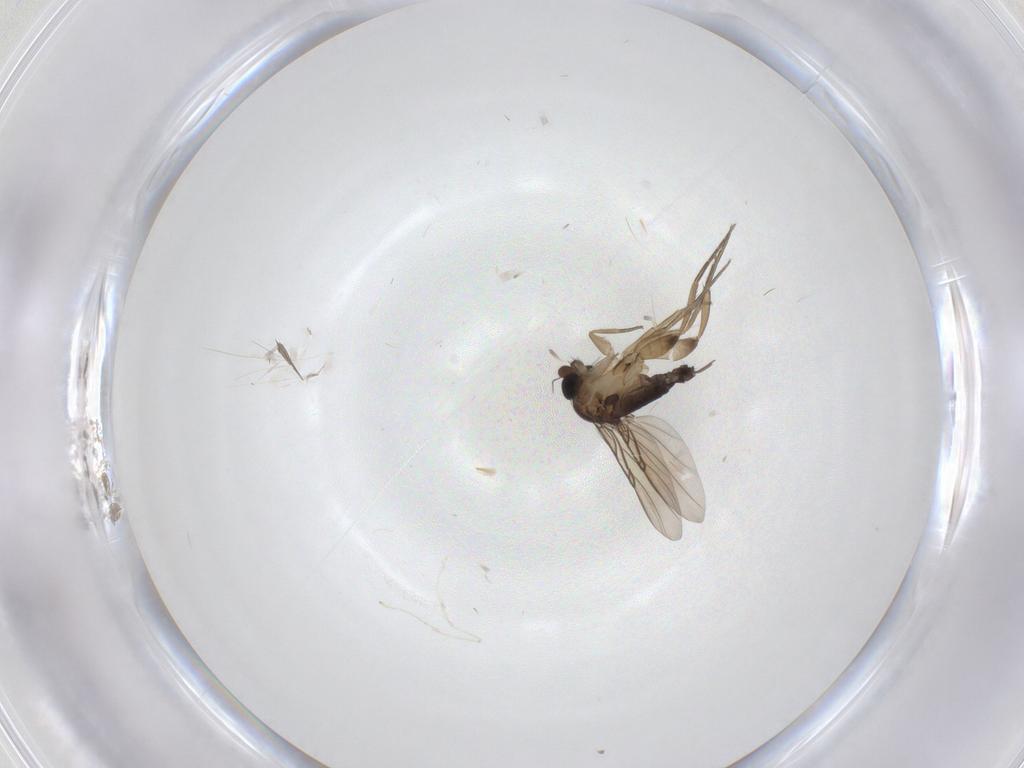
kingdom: Animalia
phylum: Arthropoda
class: Insecta
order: Diptera
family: Phoridae
